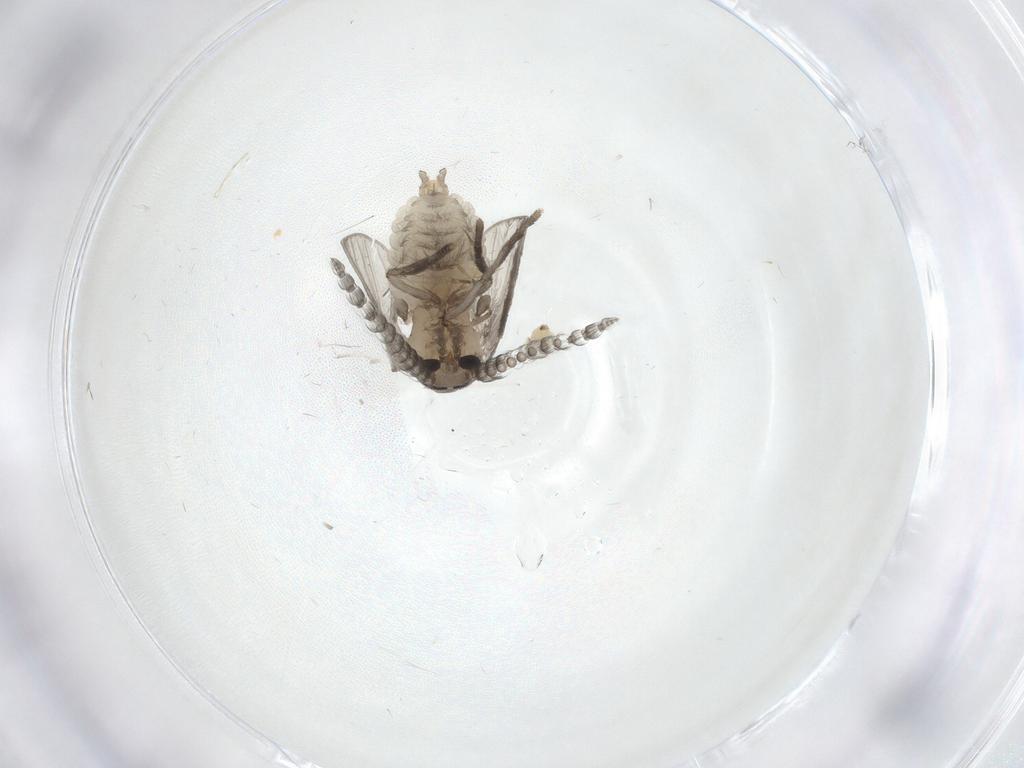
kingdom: Animalia
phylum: Arthropoda
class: Insecta
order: Diptera
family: Psychodidae
